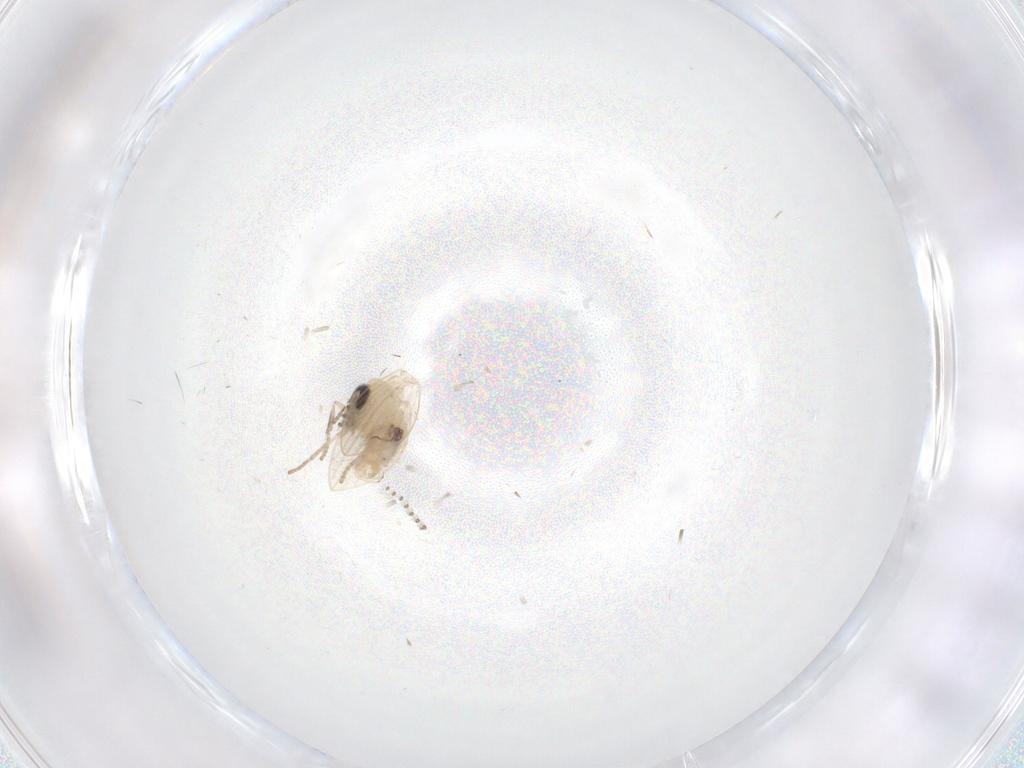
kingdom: Animalia
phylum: Arthropoda
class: Insecta
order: Diptera
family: Psychodidae
